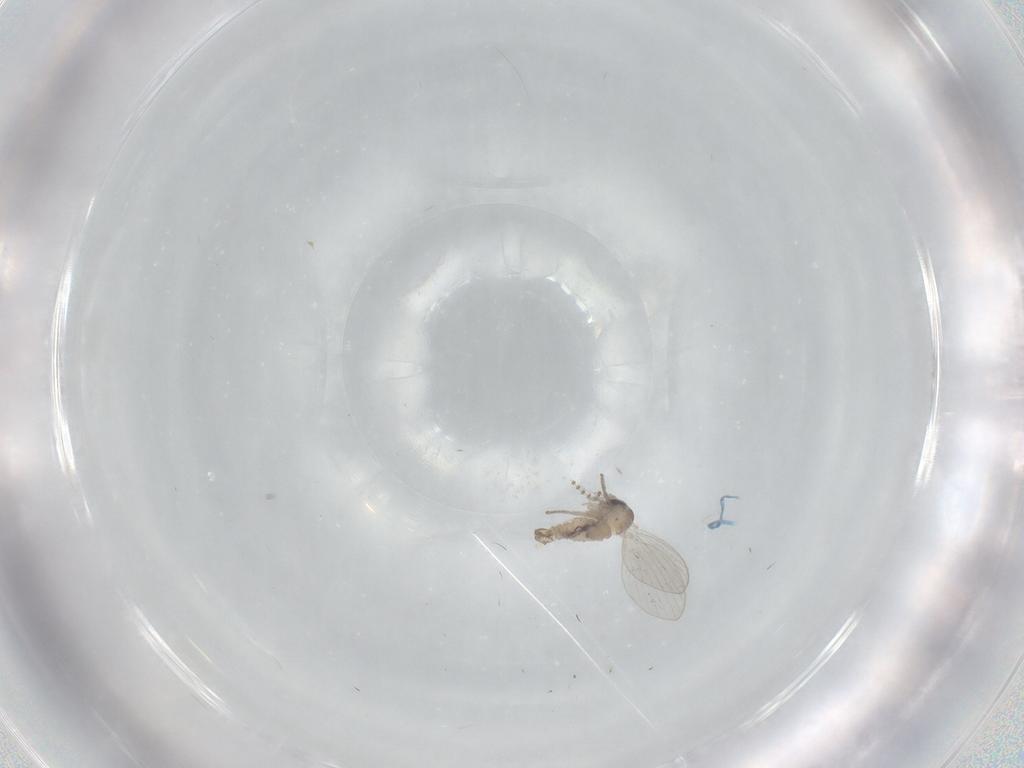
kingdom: Animalia
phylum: Arthropoda
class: Insecta
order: Diptera
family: Psychodidae
